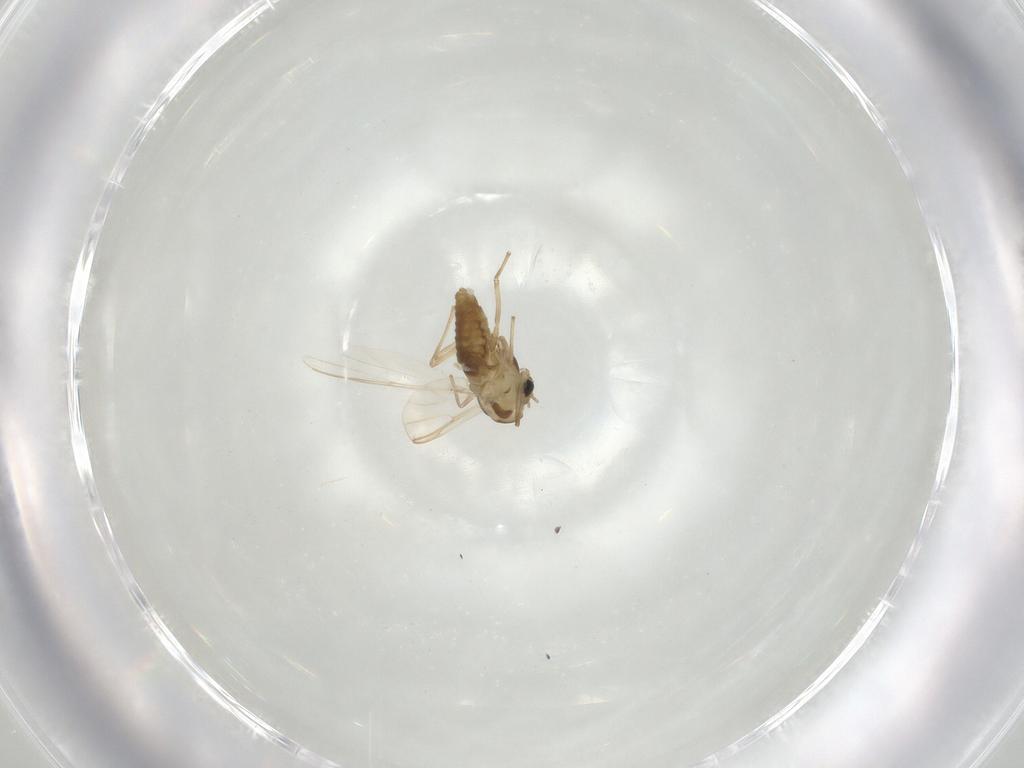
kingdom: Animalia
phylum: Arthropoda
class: Insecta
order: Diptera
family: Chironomidae
